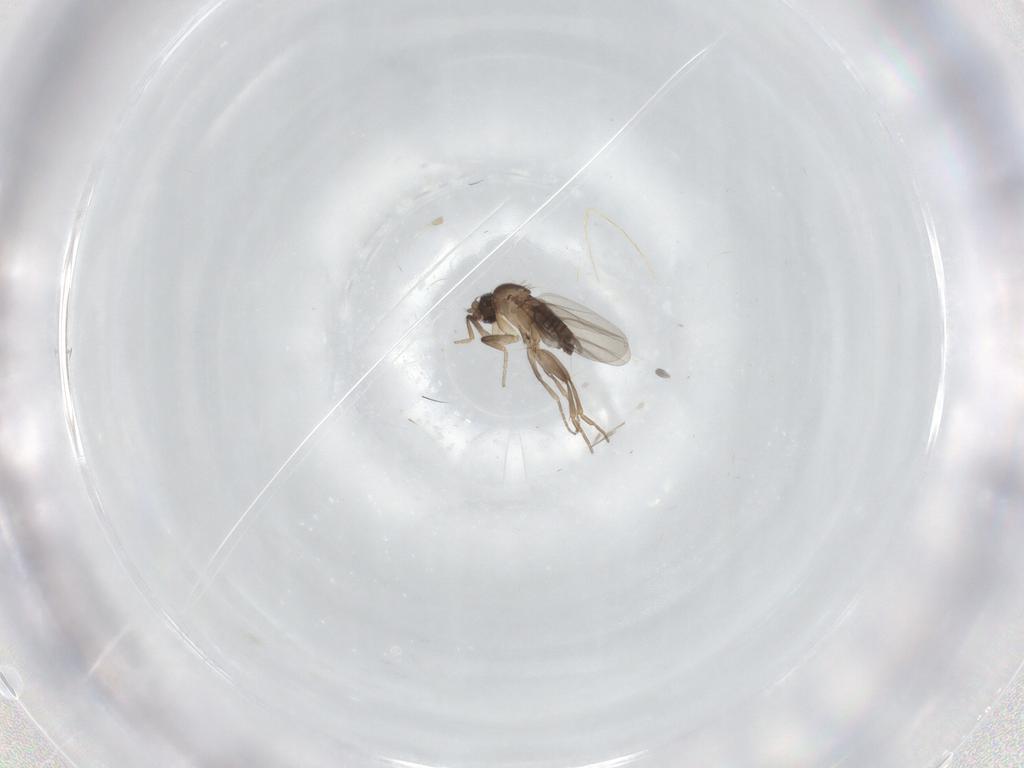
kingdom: Animalia
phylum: Arthropoda
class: Insecta
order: Diptera
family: Phoridae
